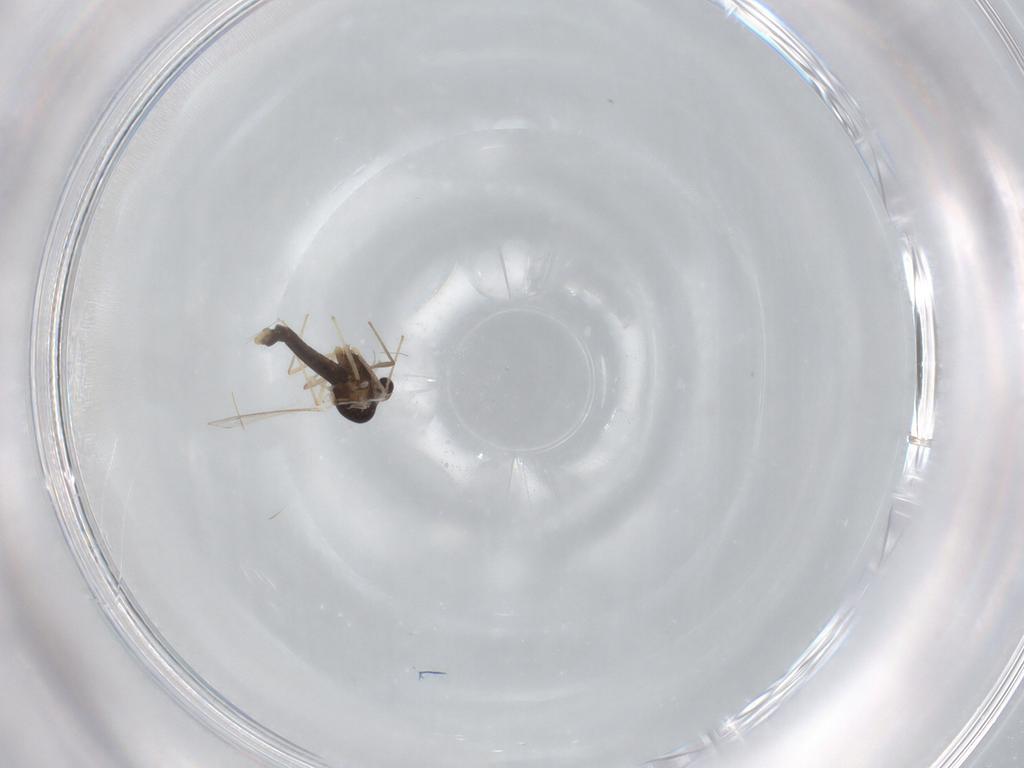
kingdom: Animalia
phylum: Arthropoda
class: Insecta
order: Diptera
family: Chironomidae
